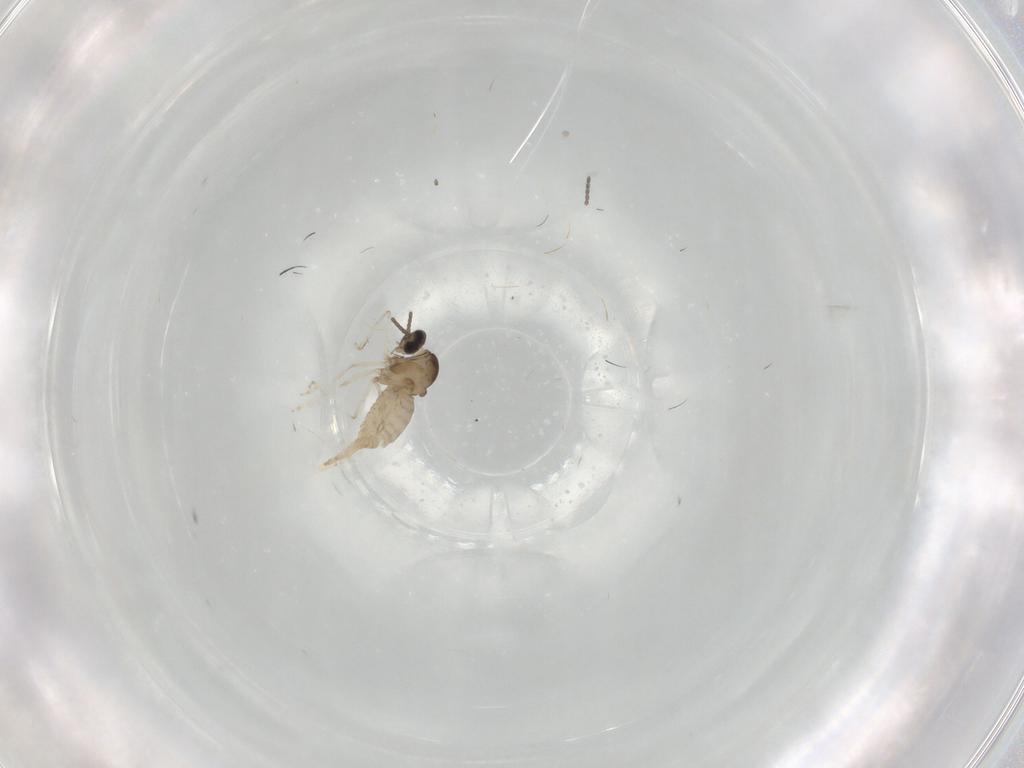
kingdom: Animalia
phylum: Arthropoda
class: Insecta
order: Diptera
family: Cecidomyiidae
